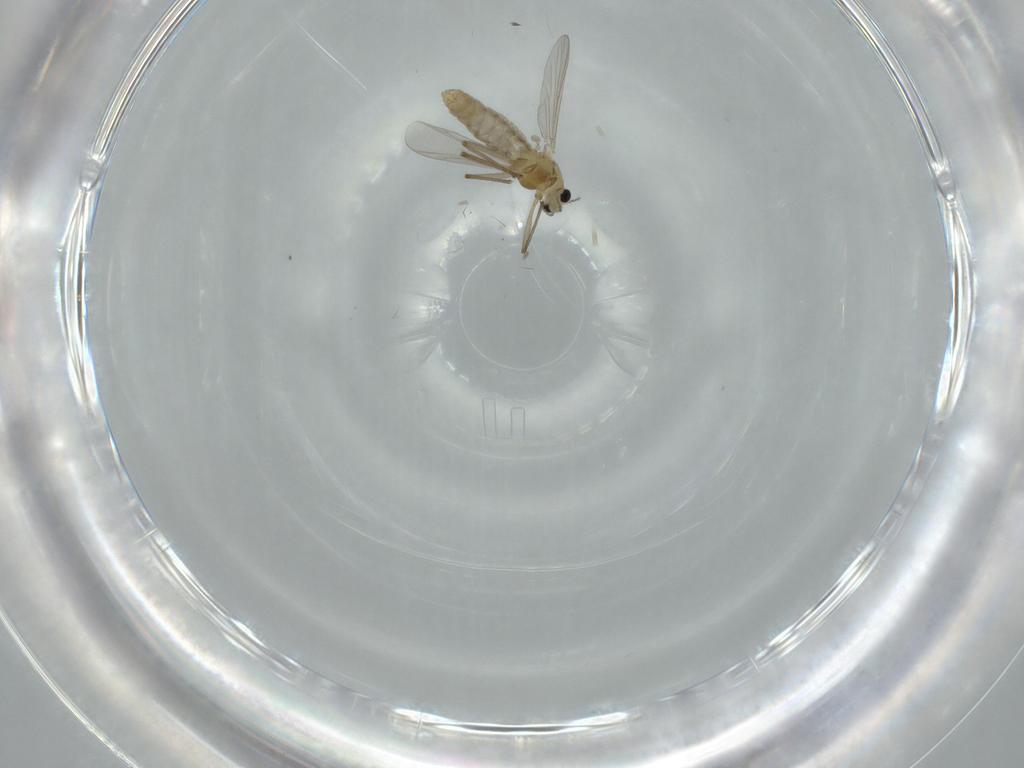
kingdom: Animalia
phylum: Arthropoda
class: Insecta
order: Diptera
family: Chironomidae
